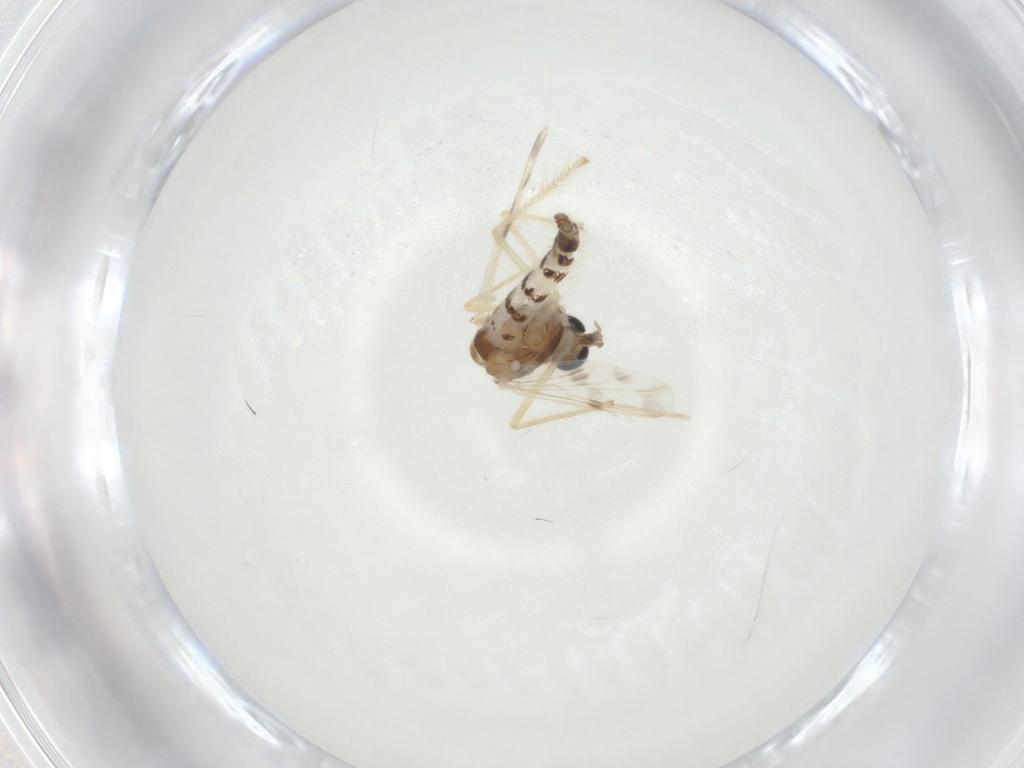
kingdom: Animalia
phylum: Arthropoda
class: Insecta
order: Diptera
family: Chironomidae
